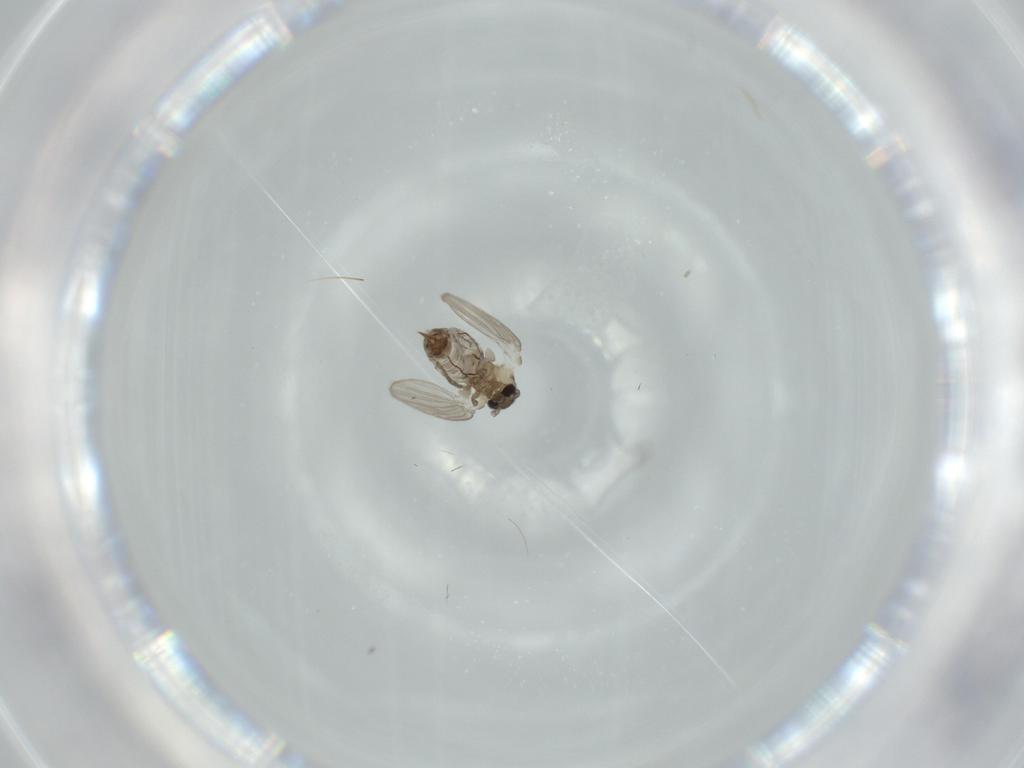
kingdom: Animalia
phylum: Arthropoda
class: Insecta
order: Diptera
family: Psychodidae
